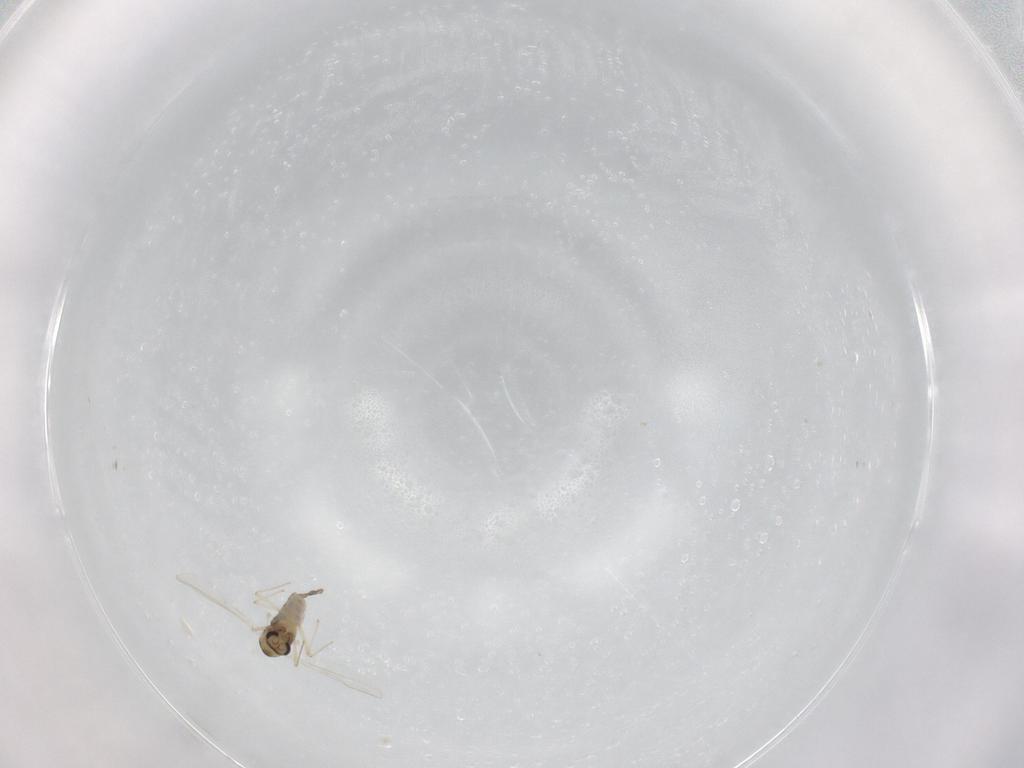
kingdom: Animalia
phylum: Arthropoda
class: Insecta
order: Diptera
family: Chironomidae
